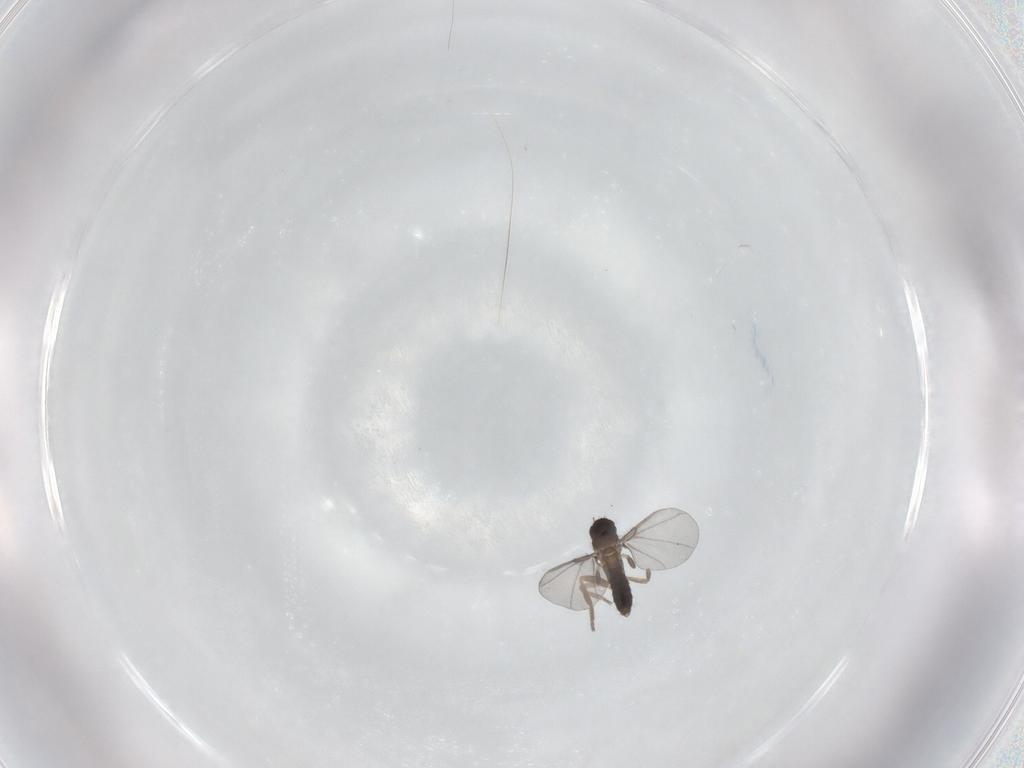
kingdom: Animalia
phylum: Arthropoda
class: Insecta
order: Diptera
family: Phoridae
